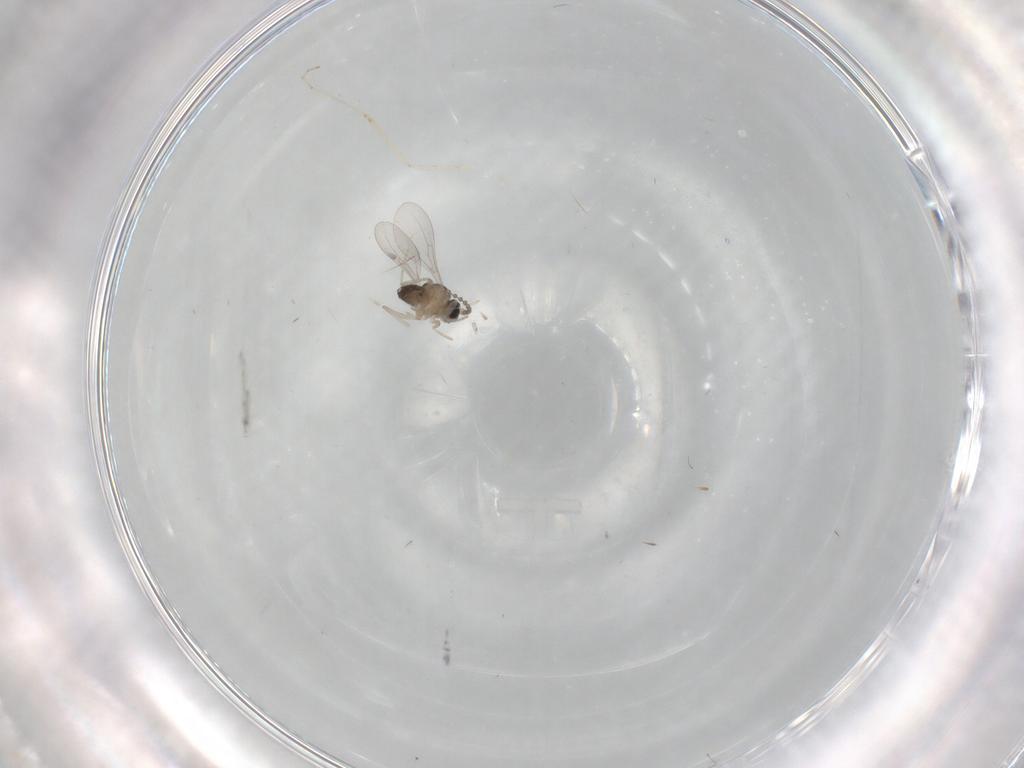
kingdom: Animalia
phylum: Arthropoda
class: Insecta
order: Diptera
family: Cecidomyiidae
